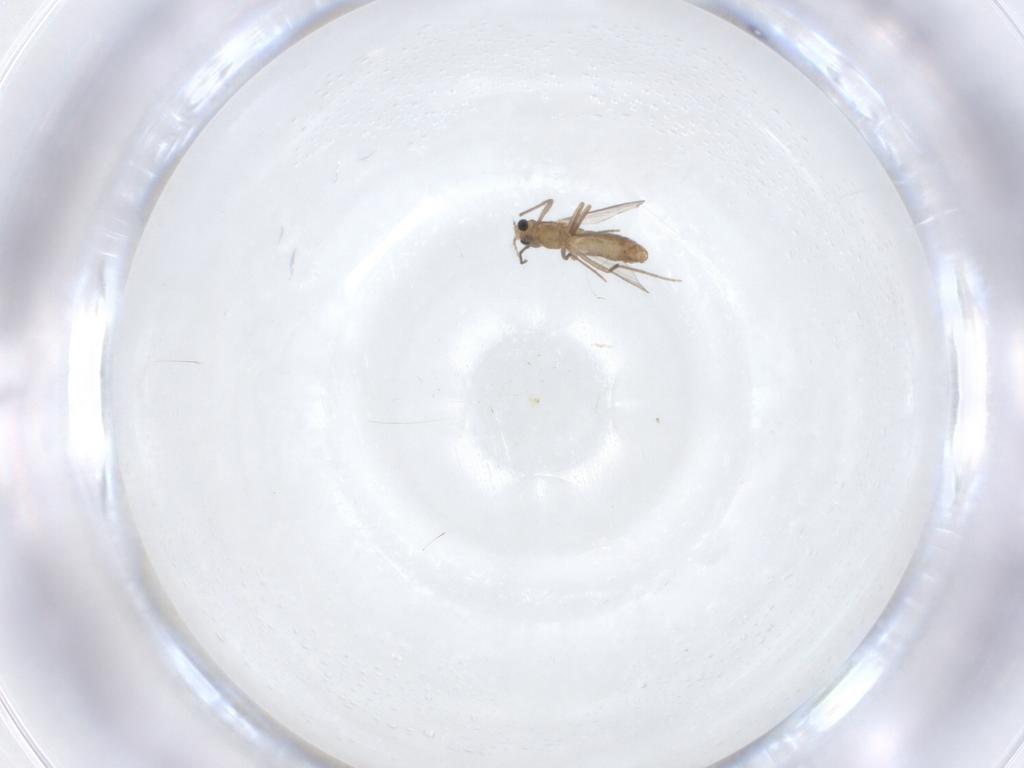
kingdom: Animalia
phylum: Arthropoda
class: Insecta
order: Diptera
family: Chironomidae
